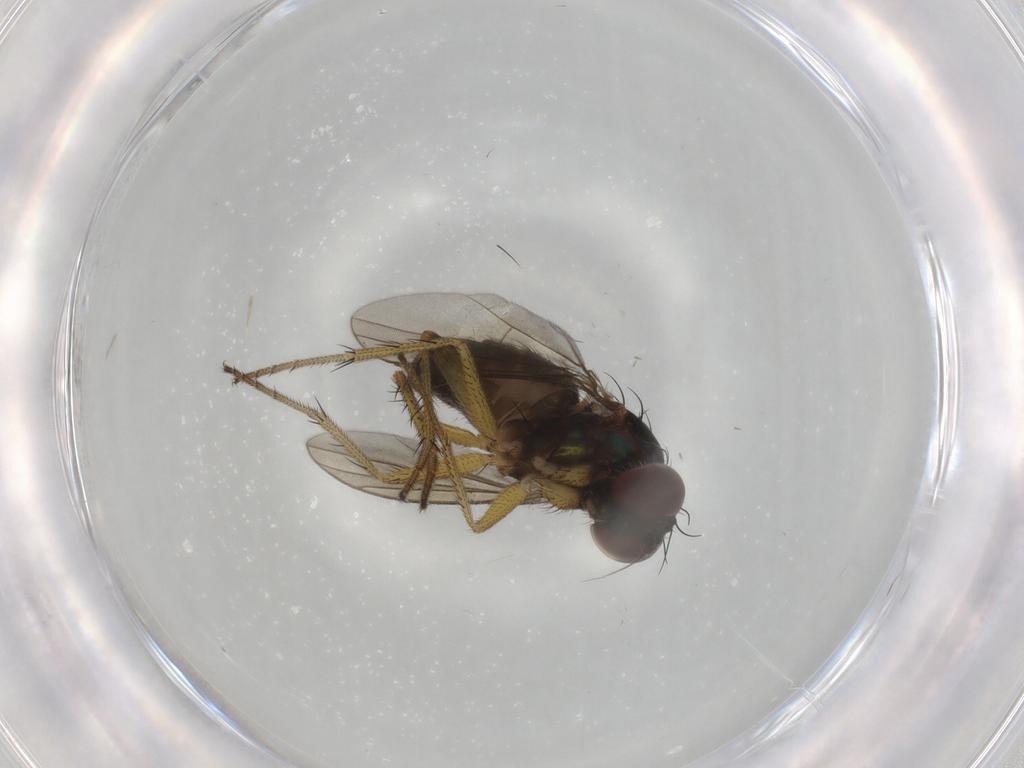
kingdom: Animalia
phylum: Arthropoda
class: Insecta
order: Diptera
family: Dolichopodidae
